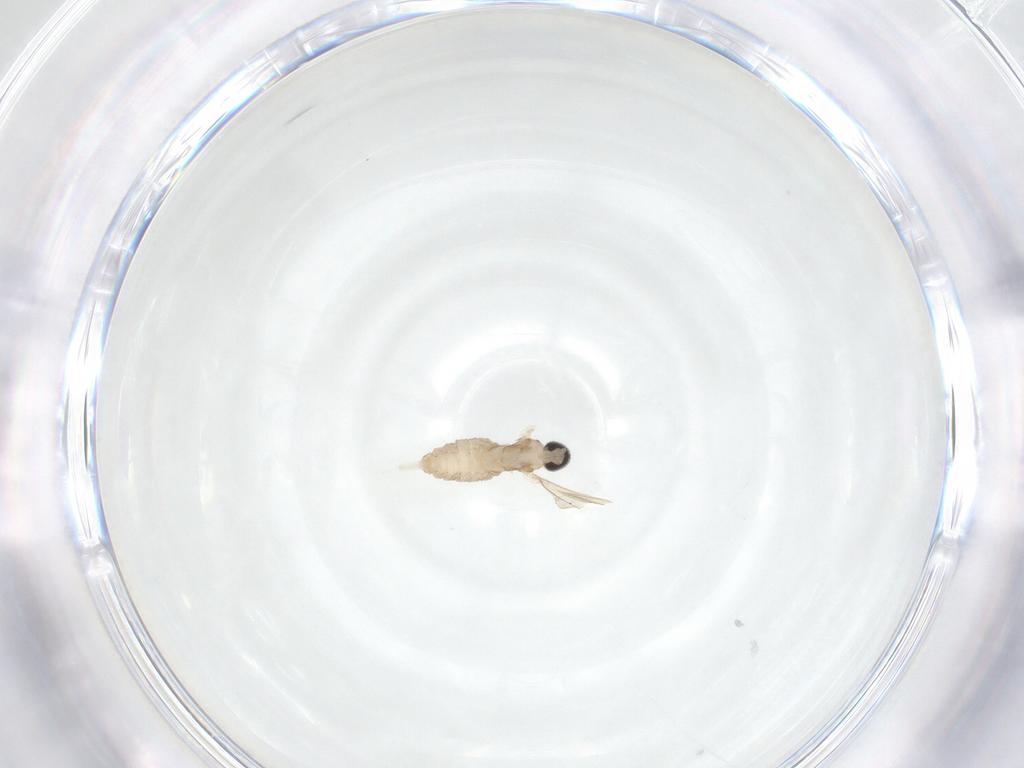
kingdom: Animalia
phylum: Arthropoda
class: Insecta
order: Diptera
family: Cecidomyiidae
